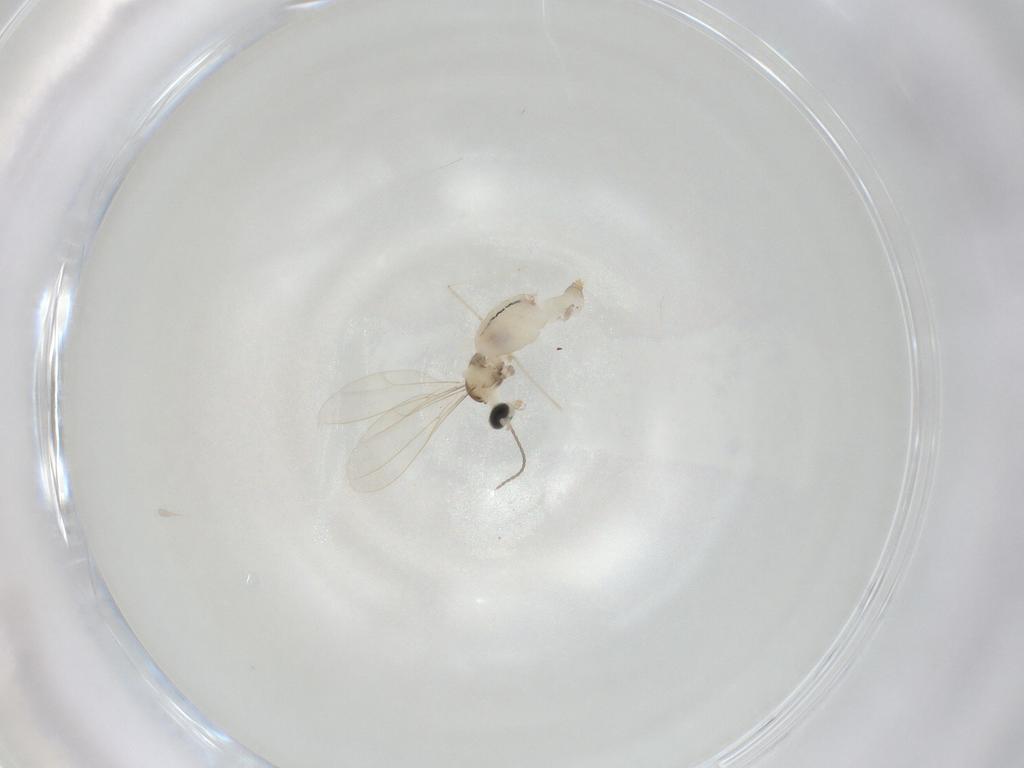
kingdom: Animalia
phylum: Arthropoda
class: Insecta
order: Diptera
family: Cecidomyiidae
